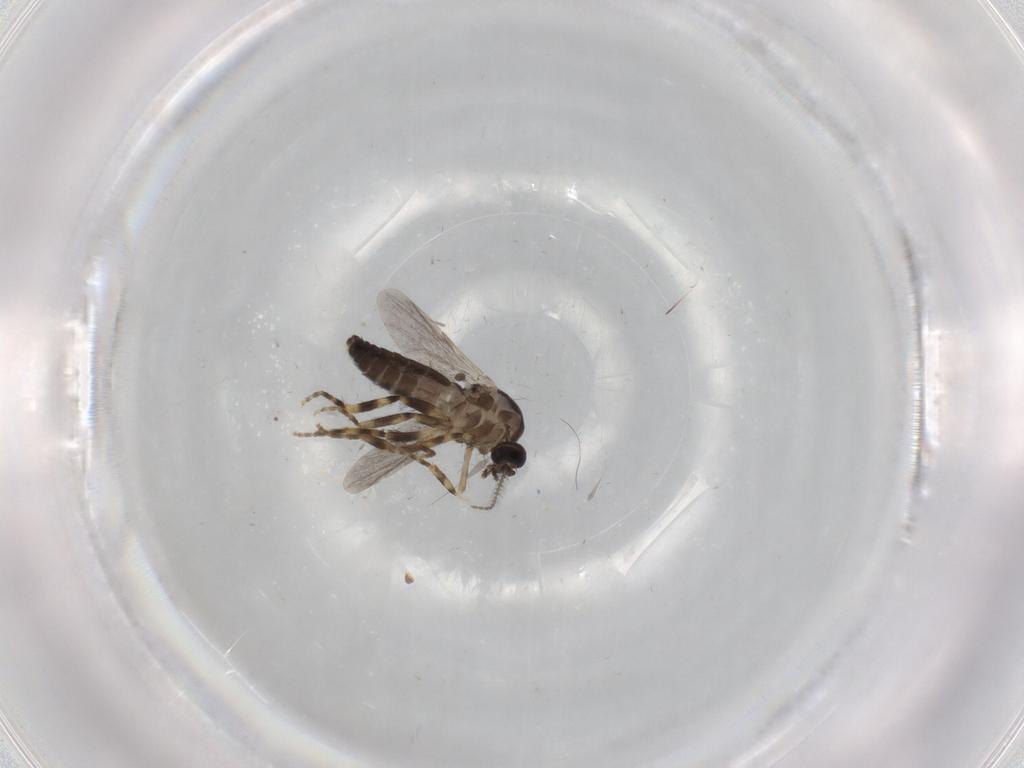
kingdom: Animalia
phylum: Arthropoda
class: Insecta
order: Diptera
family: Ceratopogonidae
